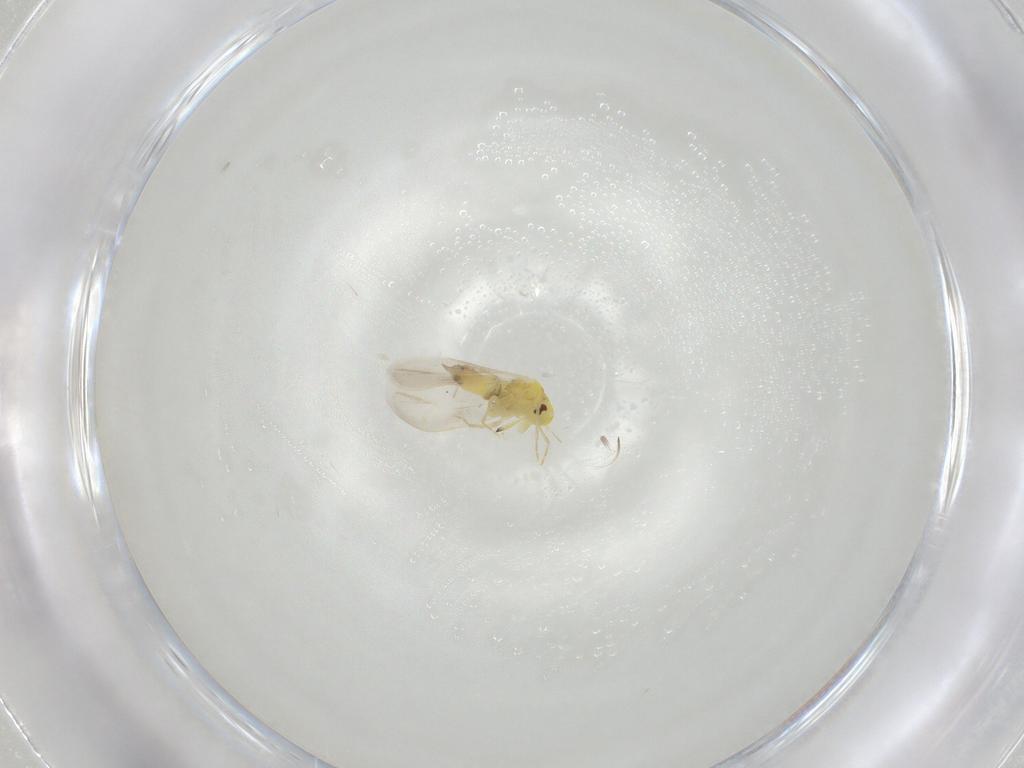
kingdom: Animalia
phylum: Arthropoda
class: Insecta
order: Hemiptera
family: Aleyrodidae
